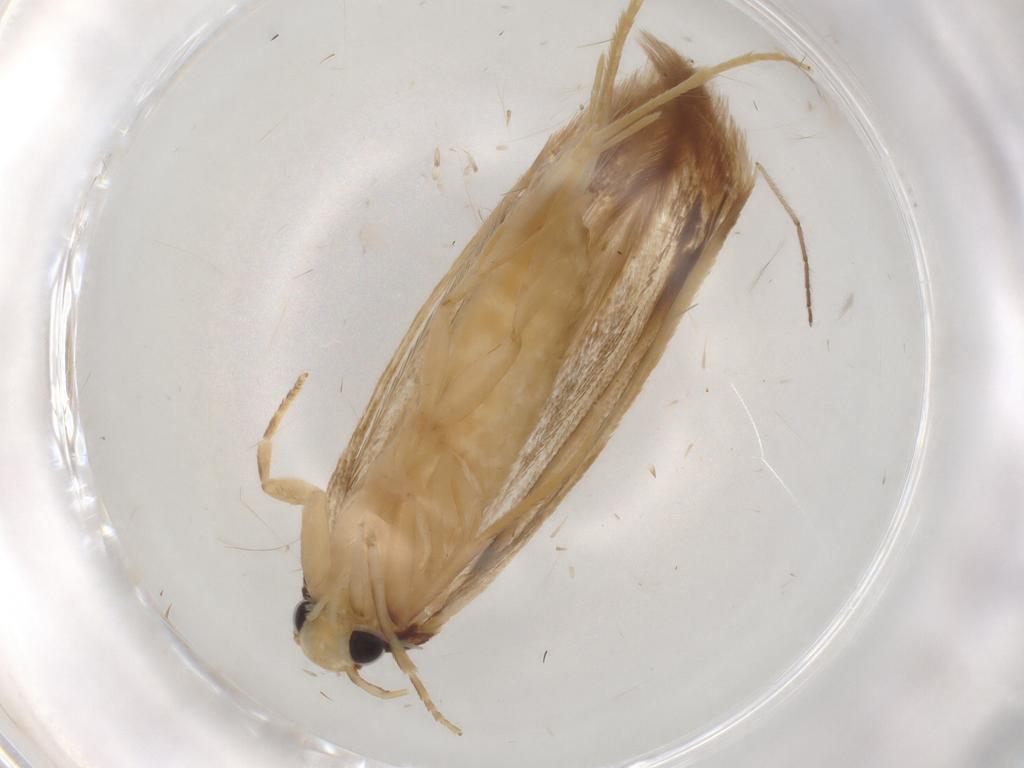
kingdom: Animalia
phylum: Arthropoda
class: Insecta
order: Lepidoptera
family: Tineidae
